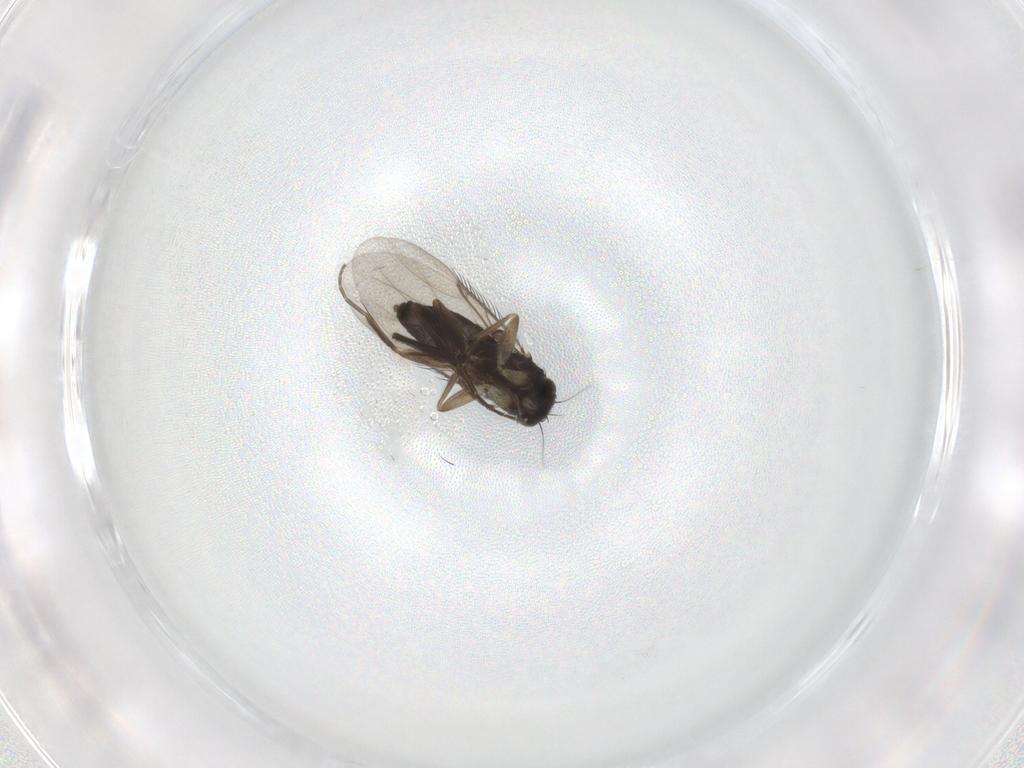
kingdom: Animalia
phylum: Arthropoda
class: Insecta
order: Diptera
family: Phoridae
